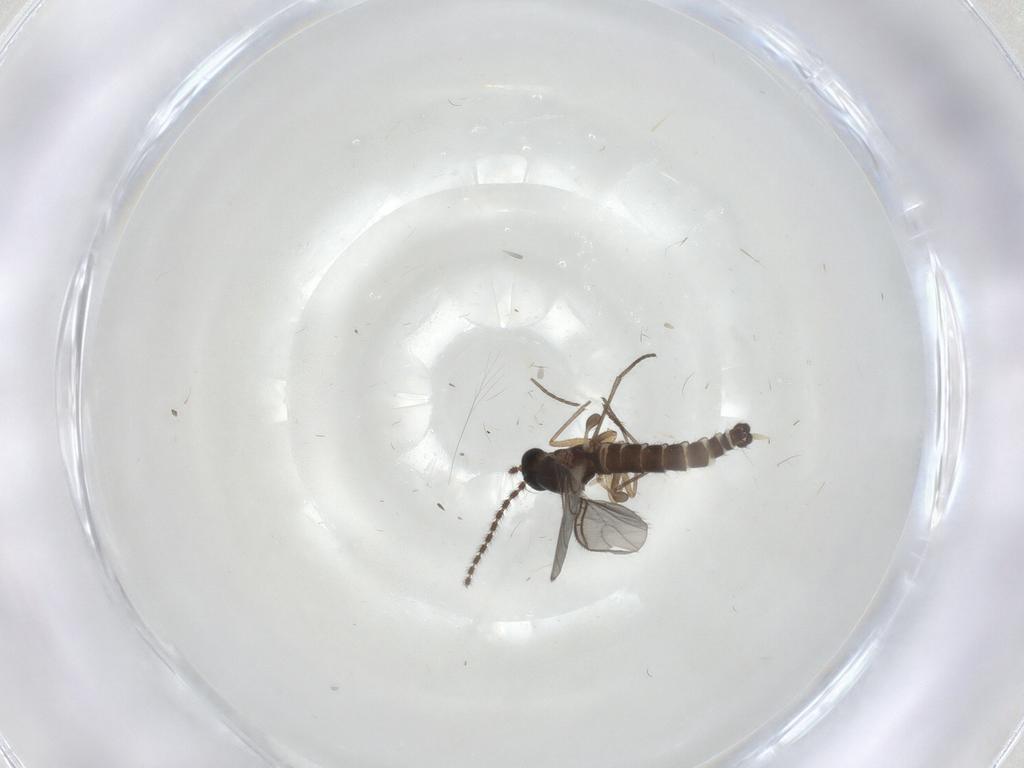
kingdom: Animalia
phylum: Arthropoda
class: Insecta
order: Diptera
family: Sciaridae
